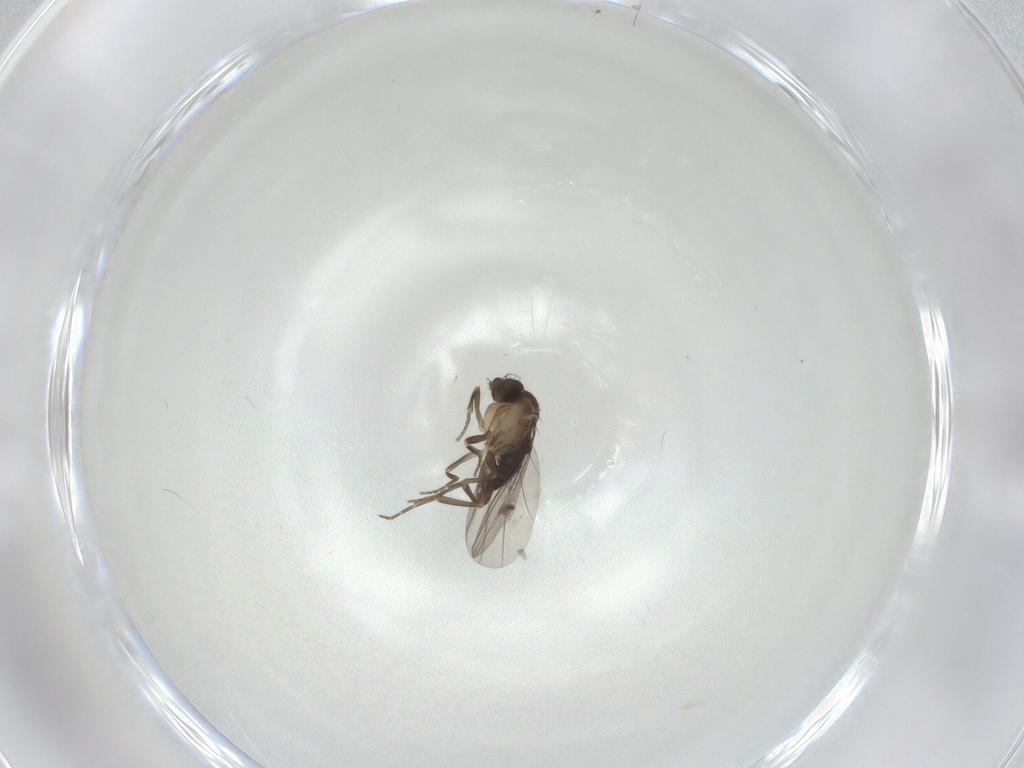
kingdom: Animalia
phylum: Arthropoda
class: Insecta
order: Diptera
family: Phoridae
